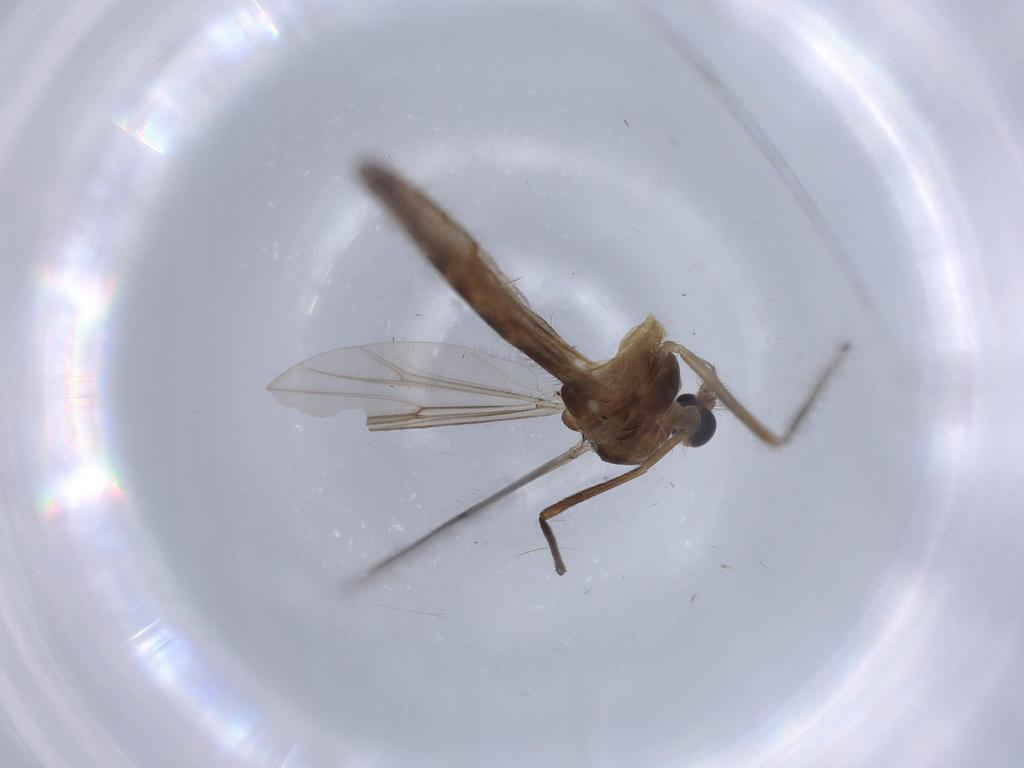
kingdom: Animalia
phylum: Arthropoda
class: Insecta
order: Diptera
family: Chironomidae
